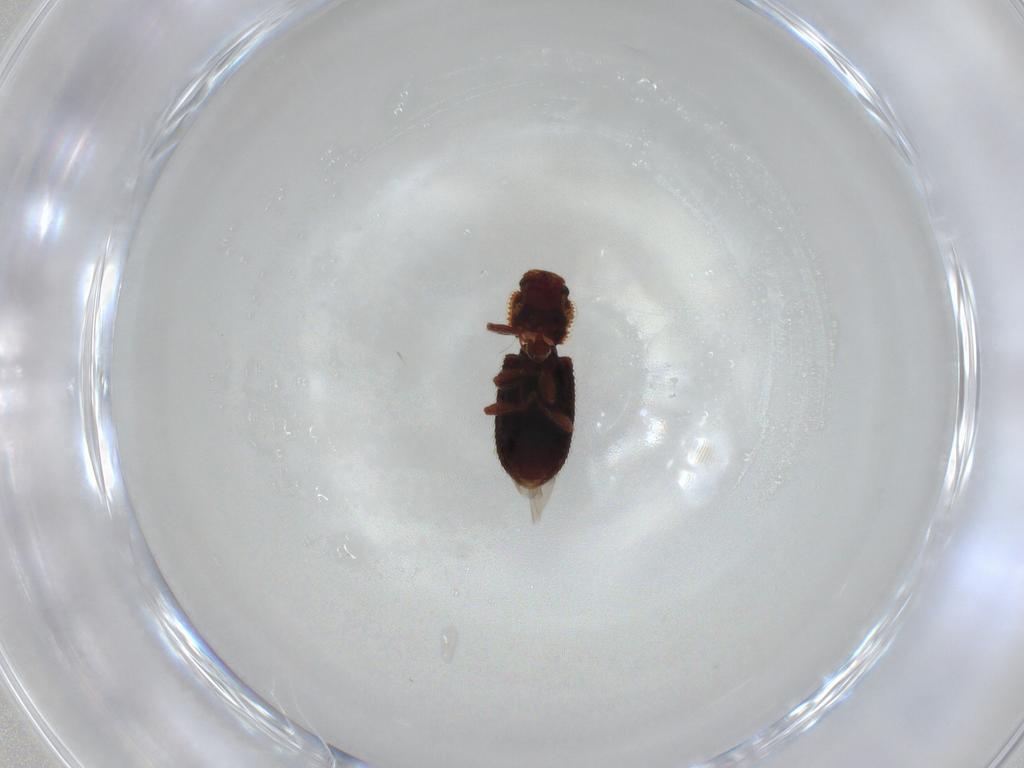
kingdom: Animalia
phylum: Arthropoda
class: Insecta
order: Coleoptera
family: Zopheridae
